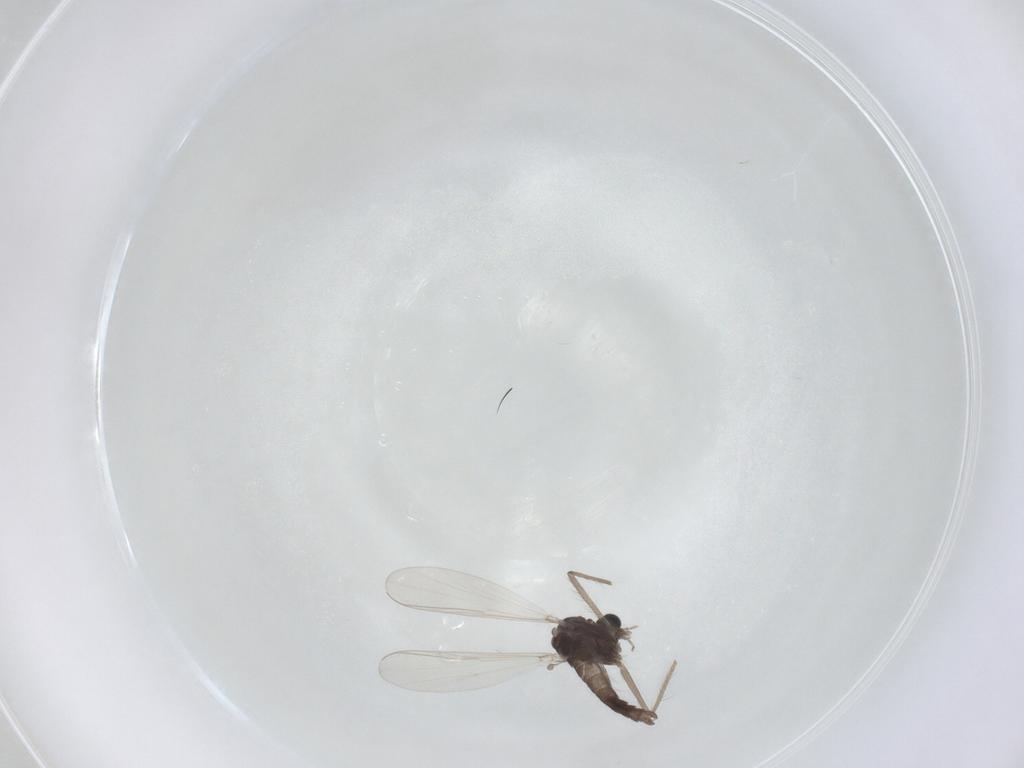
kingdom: Animalia
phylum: Arthropoda
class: Insecta
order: Diptera
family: Chironomidae
